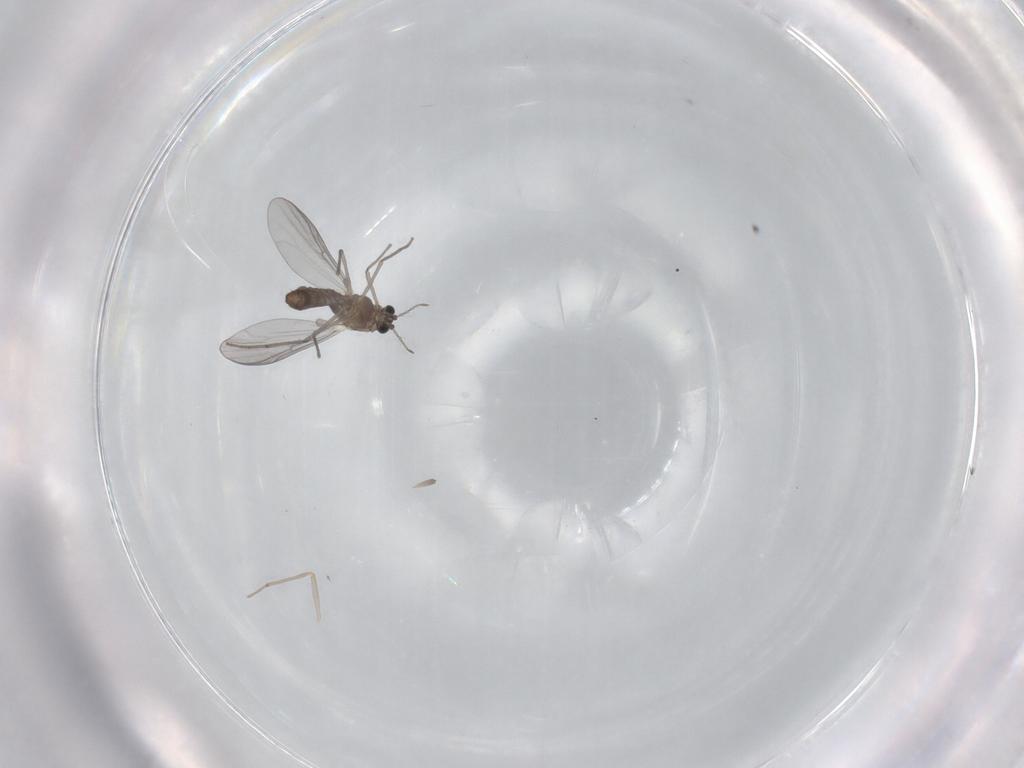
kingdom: Animalia
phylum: Arthropoda
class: Insecta
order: Diptera
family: Chironomidae
